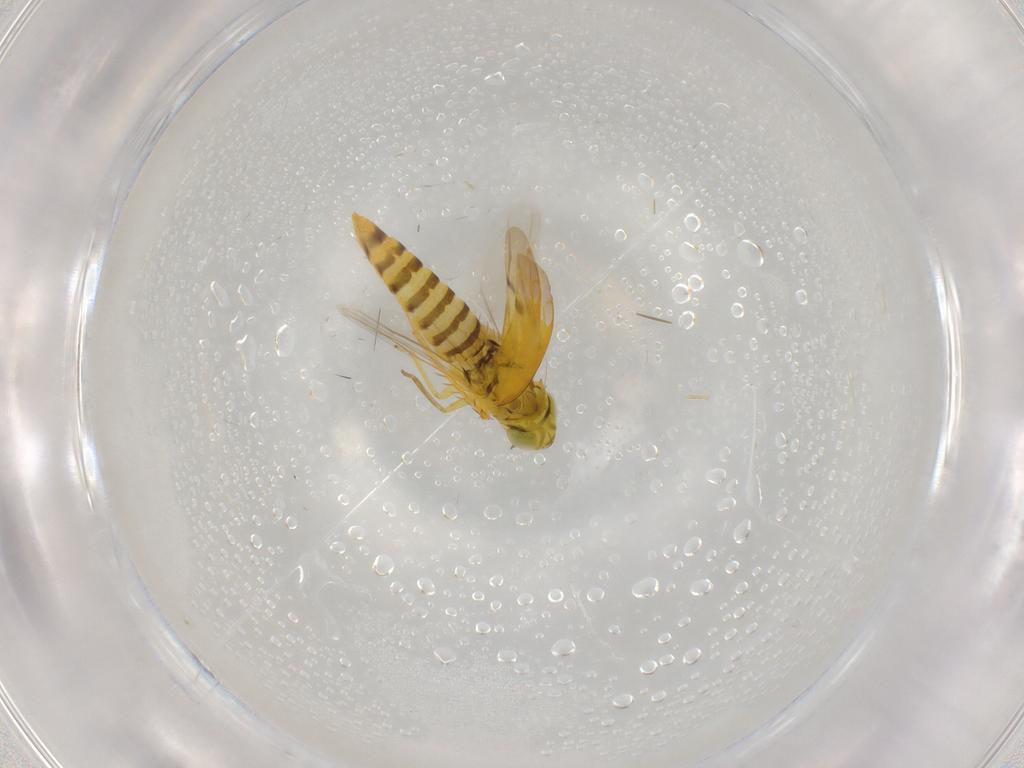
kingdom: Animalia
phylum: Arthropoda
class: Insecta
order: Hemiptera
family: Cicadellidae
